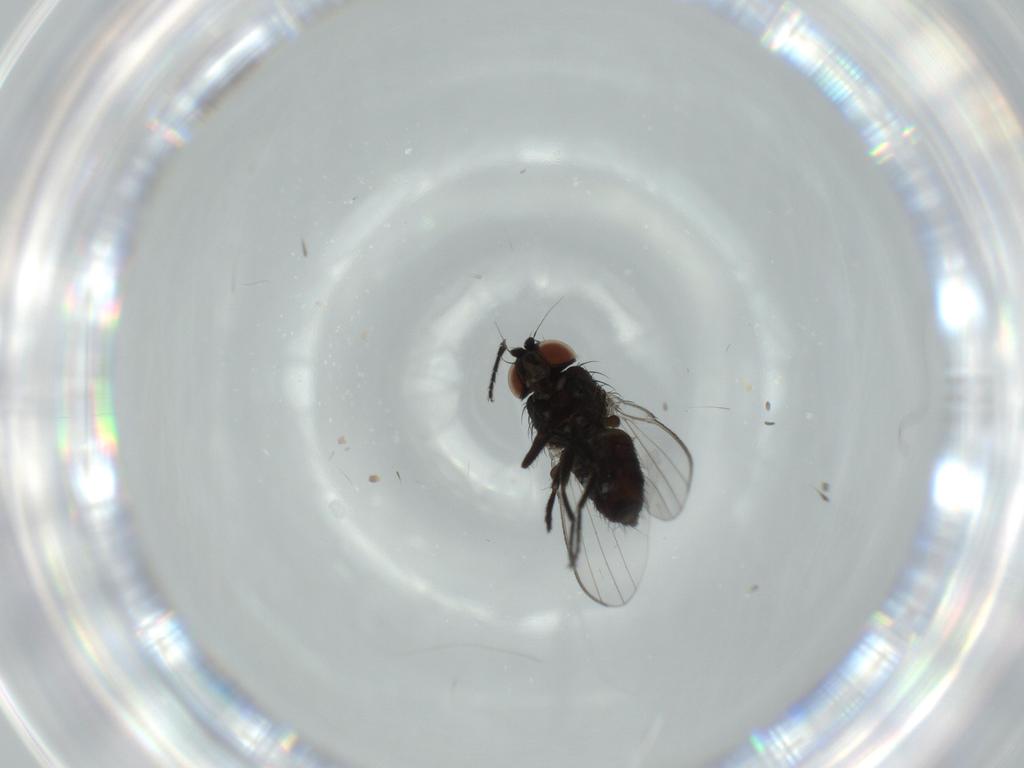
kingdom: Animalia
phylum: Arthropoda
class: Insecta
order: Diptera
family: Milichiidae
